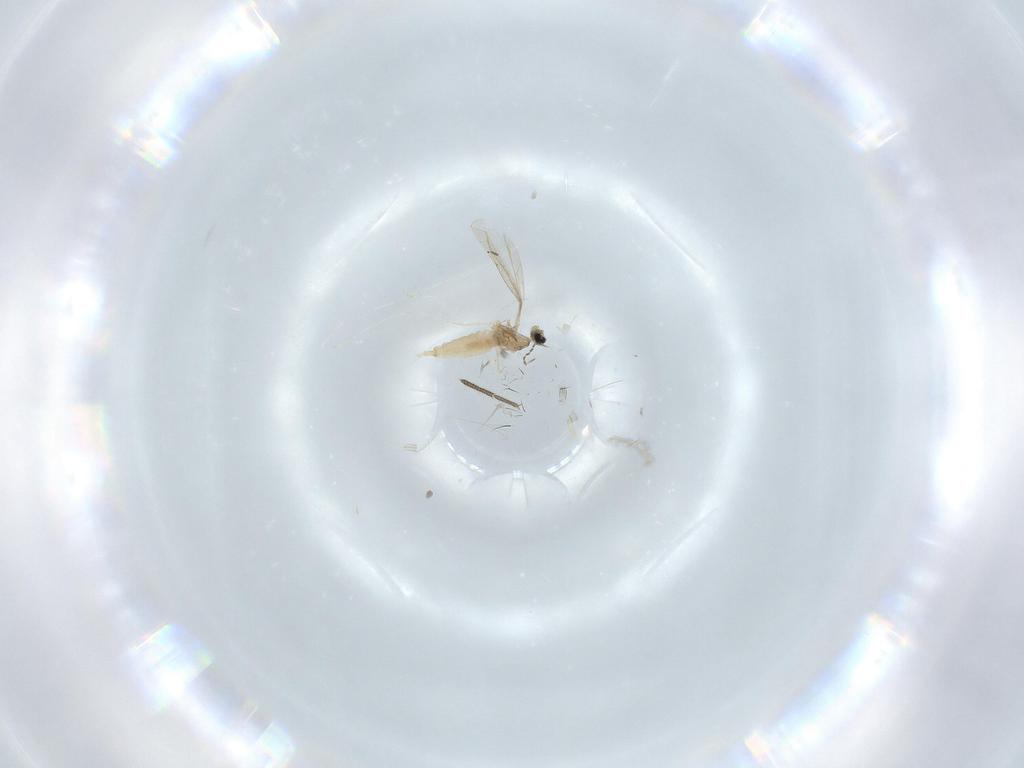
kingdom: Animalia
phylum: Arthropoda
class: Insecta
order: Diptera
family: Cecidomyiidae
